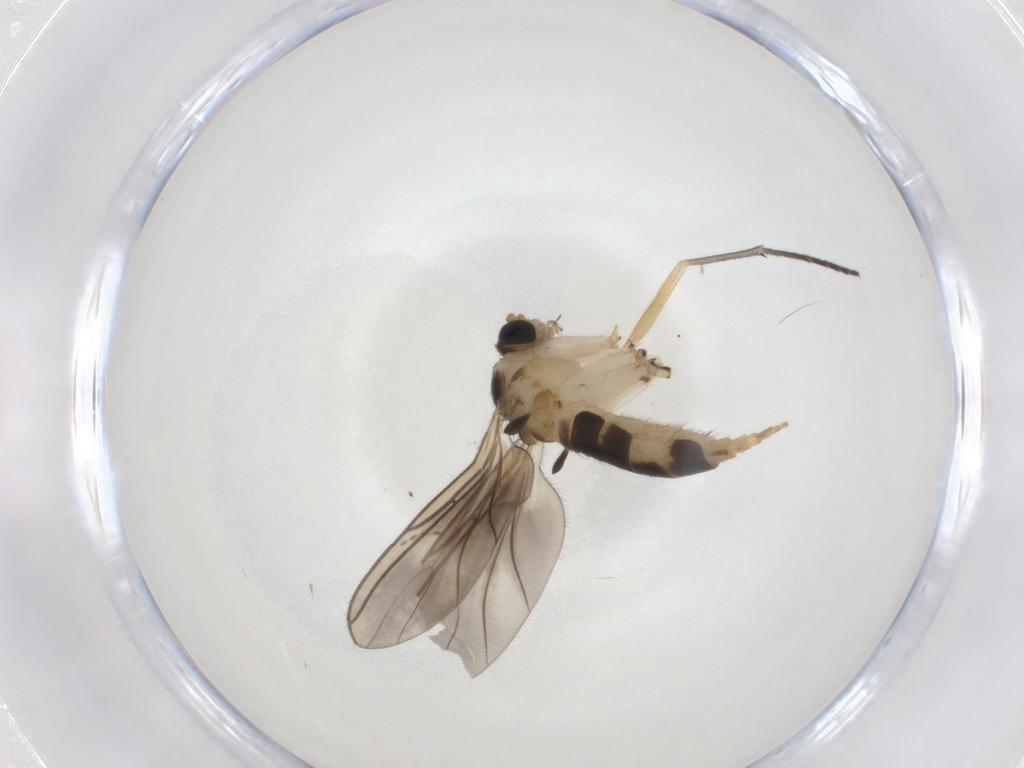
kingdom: Animalia
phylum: Arthropoda
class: Insecta
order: Diptera
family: Sciaridae
